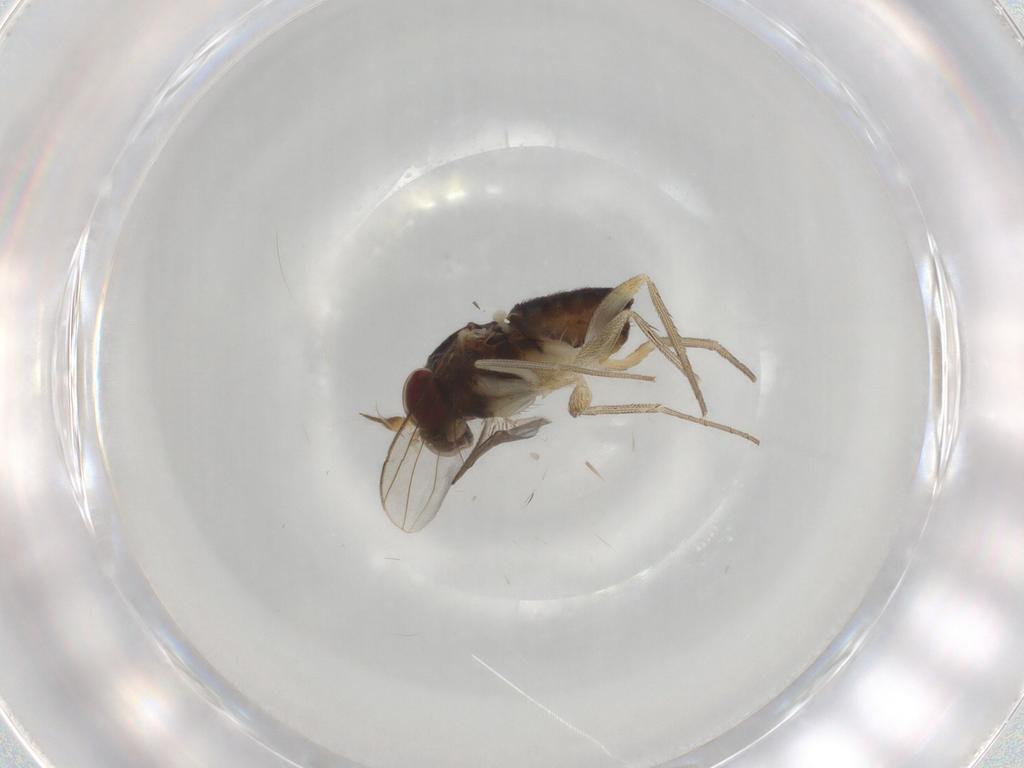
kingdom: Animalia
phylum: Arthropoda
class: Insecta
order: Diptera
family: Dolichopodidae
